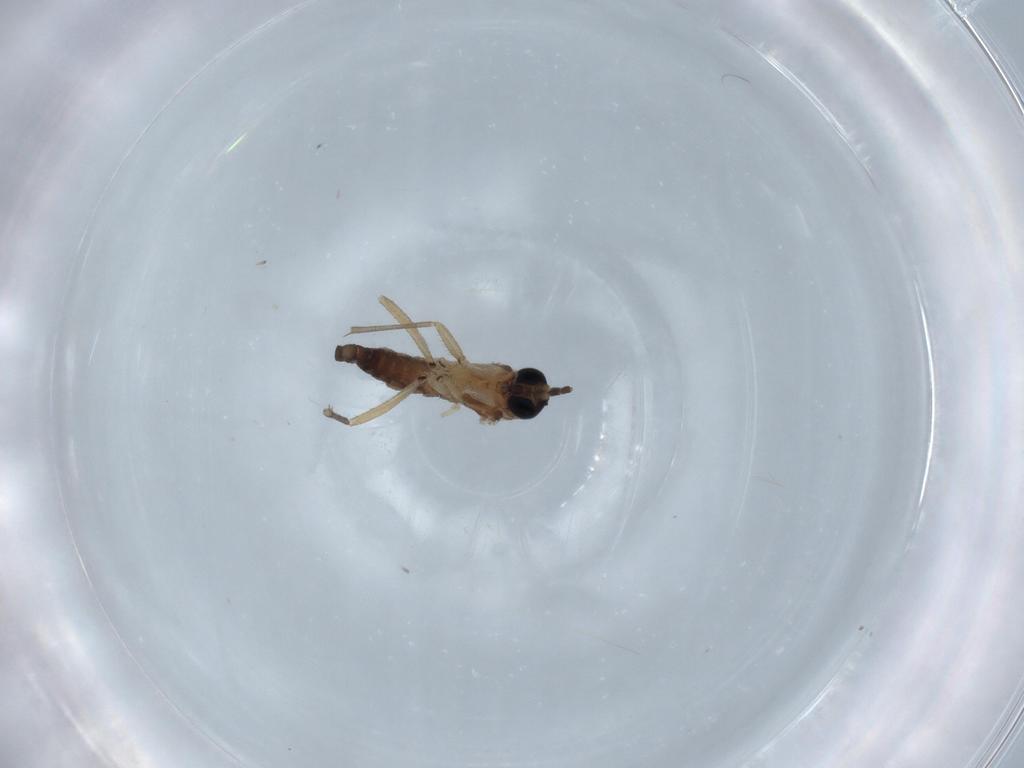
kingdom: Animalia
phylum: Arthropoda
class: Insecta
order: Diptera
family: Sciaridae
